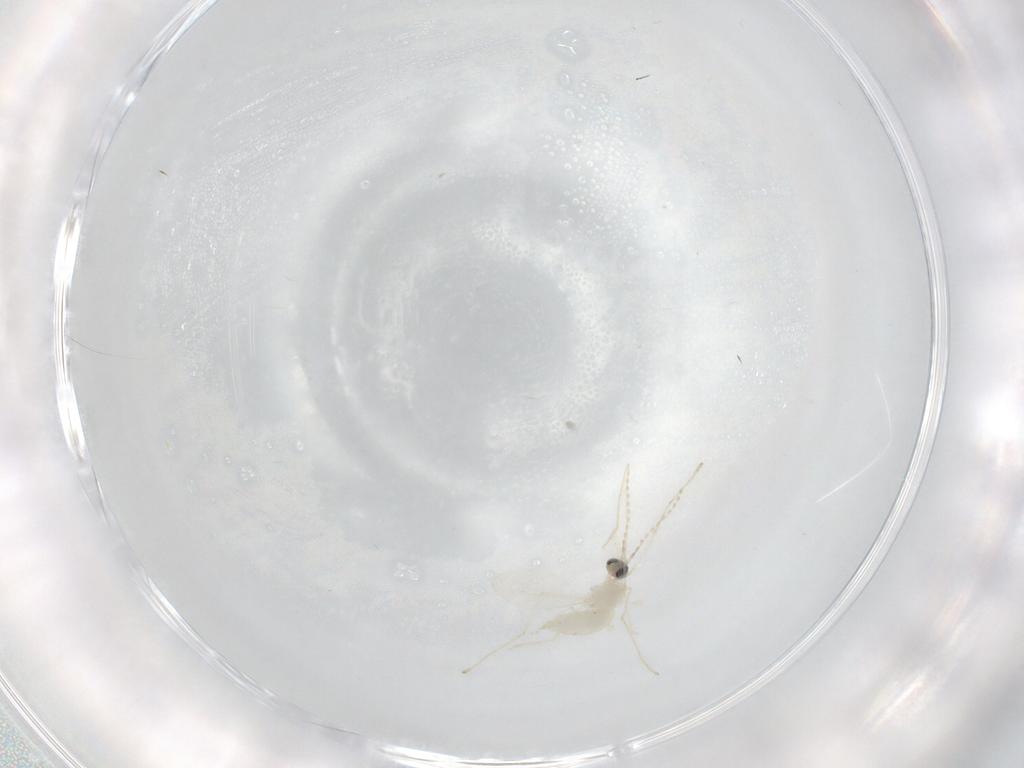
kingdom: Animalia
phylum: Arthropoda
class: Insecta
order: Diptera
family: Cecidomyiidae
